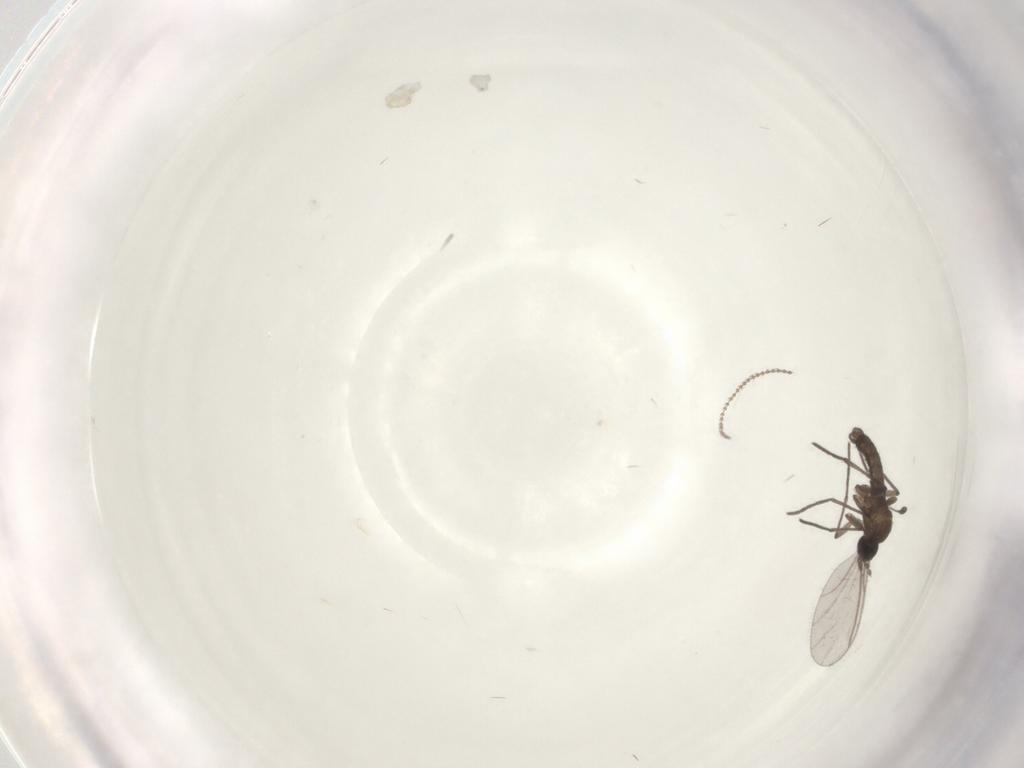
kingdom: Animalia
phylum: Arthropoda
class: Insecta
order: Diptera
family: Cecidomyiidae
